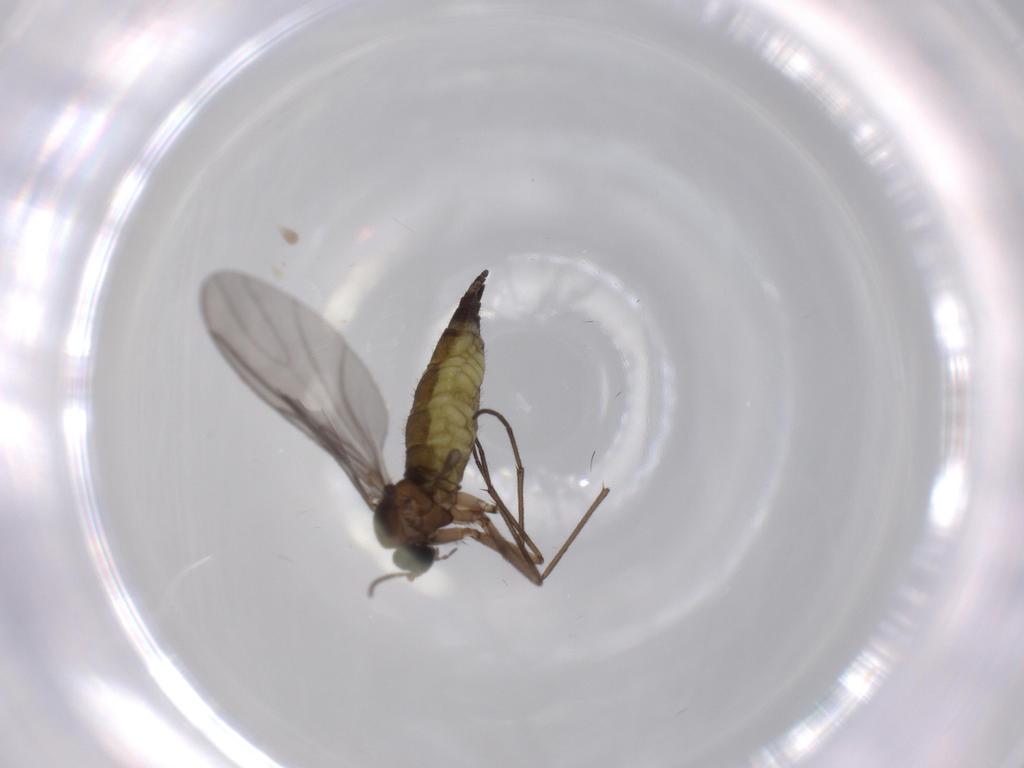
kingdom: Animalia
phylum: Arthropoda
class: Insecta
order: Diptera
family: Sciaridae
